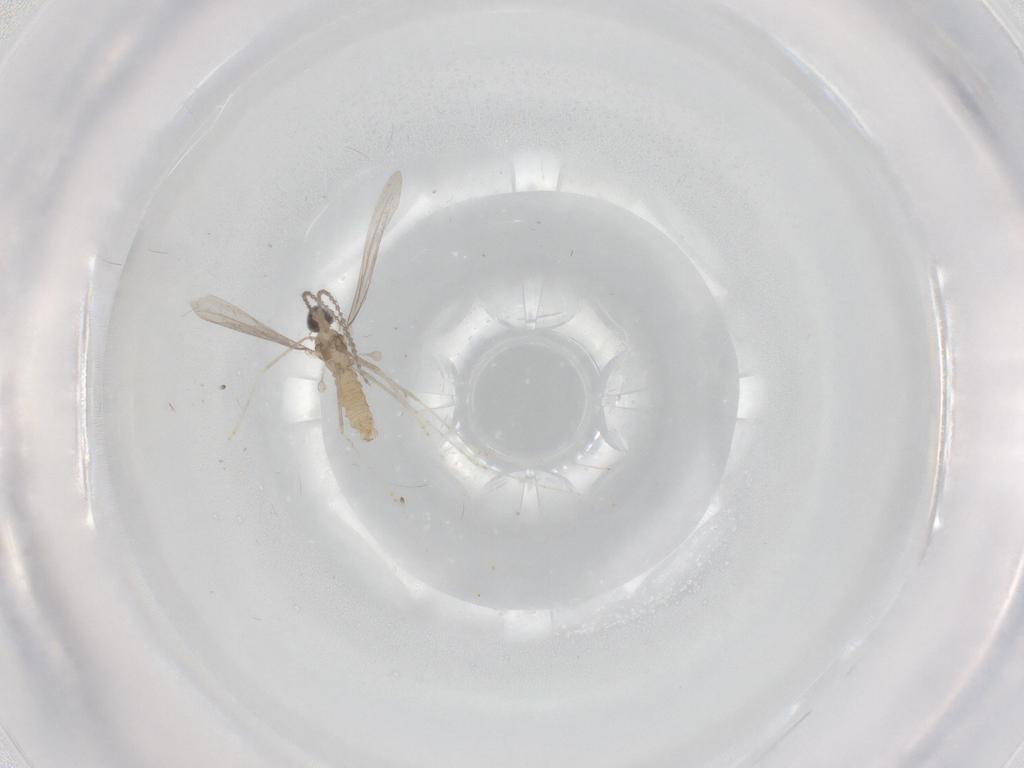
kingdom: Animalia
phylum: Arthropoda
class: Insecta
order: Diptera
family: Cecidomyiidae
